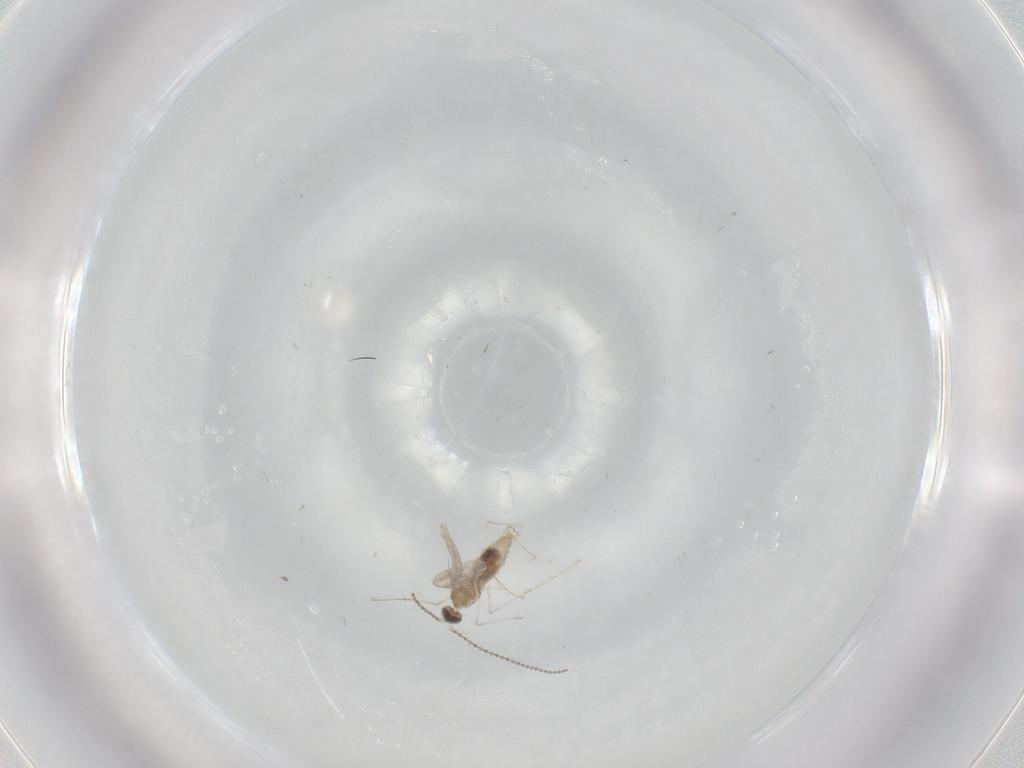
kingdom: Animalia
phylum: Arthropoda
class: Insecta
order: Diptera
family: Cecidomyiidae
